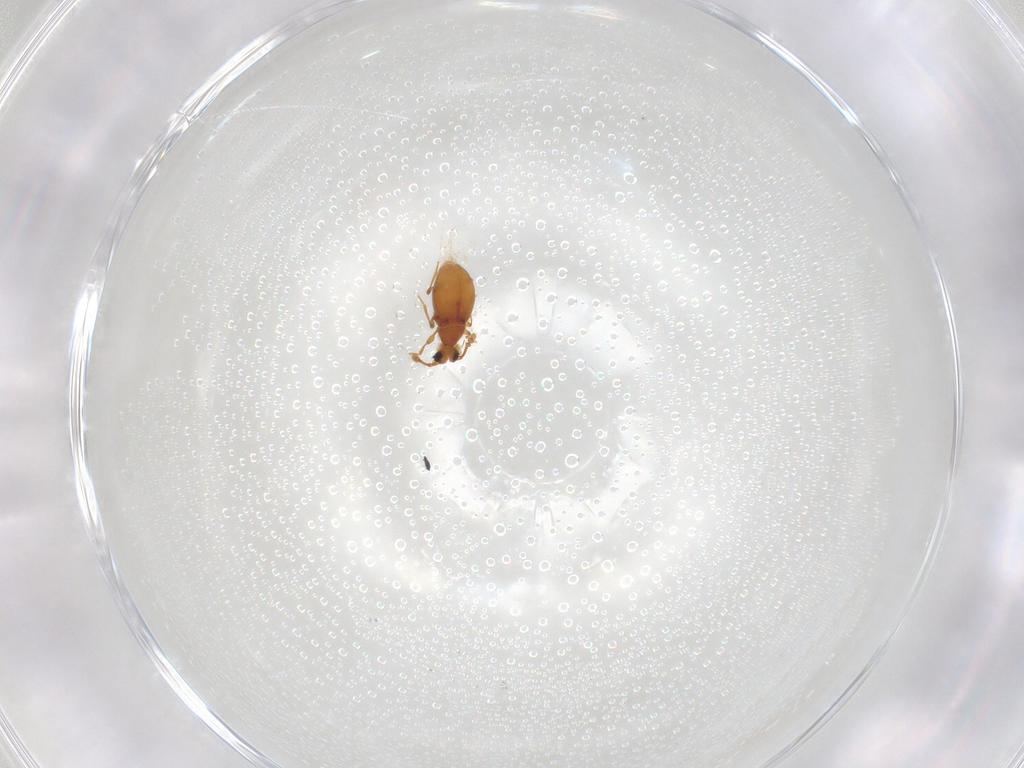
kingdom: Animalia
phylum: Arthropoda
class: Insecta
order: Coleoptera
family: Staphylinidae
